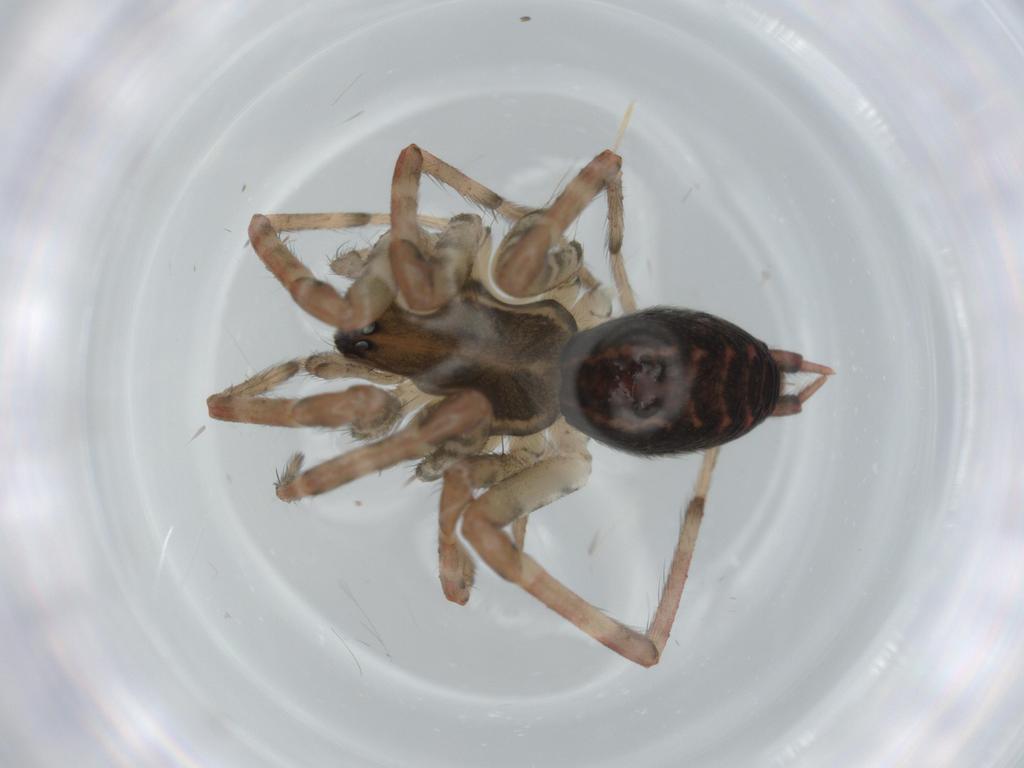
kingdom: Animalia
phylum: Arthropoda
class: Arachnida
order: Araneae
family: Agelenidae
